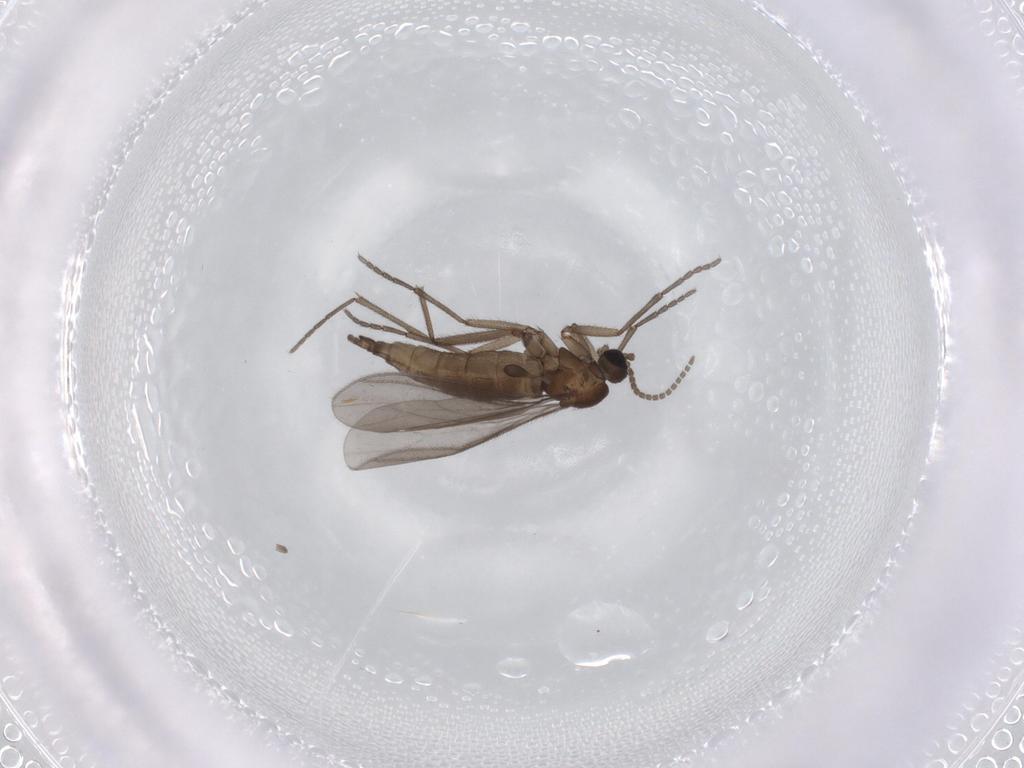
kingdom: Animalia
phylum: Arthropoda
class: Insecta
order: Diptera
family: Sciaridae
